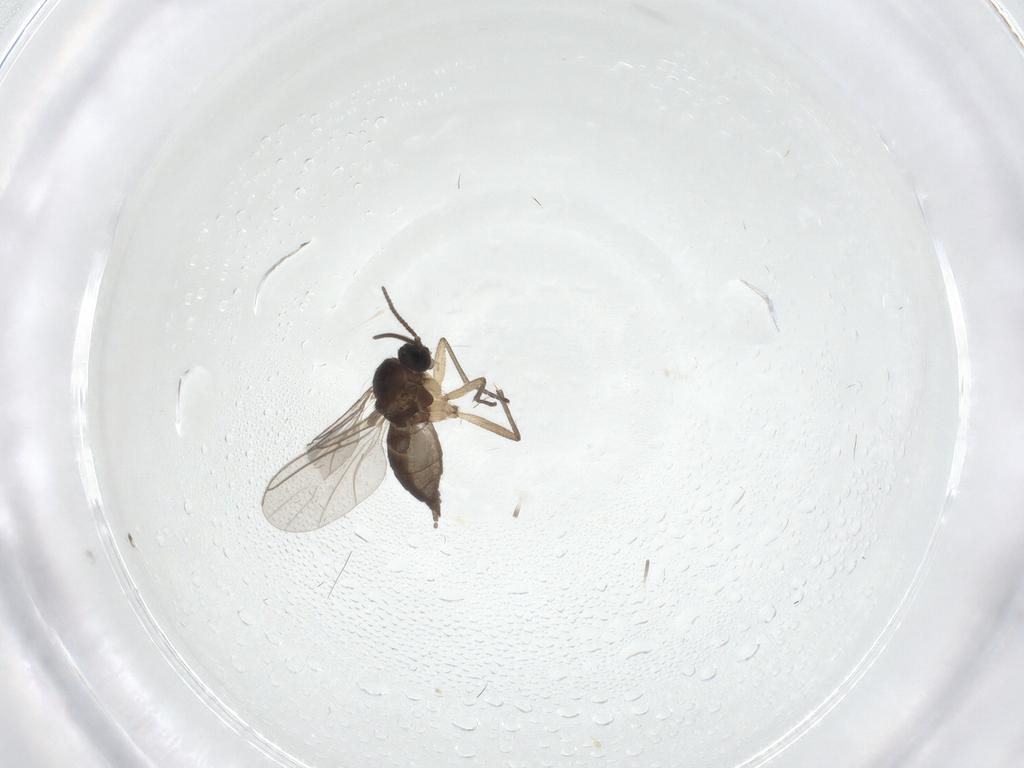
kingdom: Animalia
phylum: Arthropoda
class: Insecta
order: Diptera
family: Sciaridae
